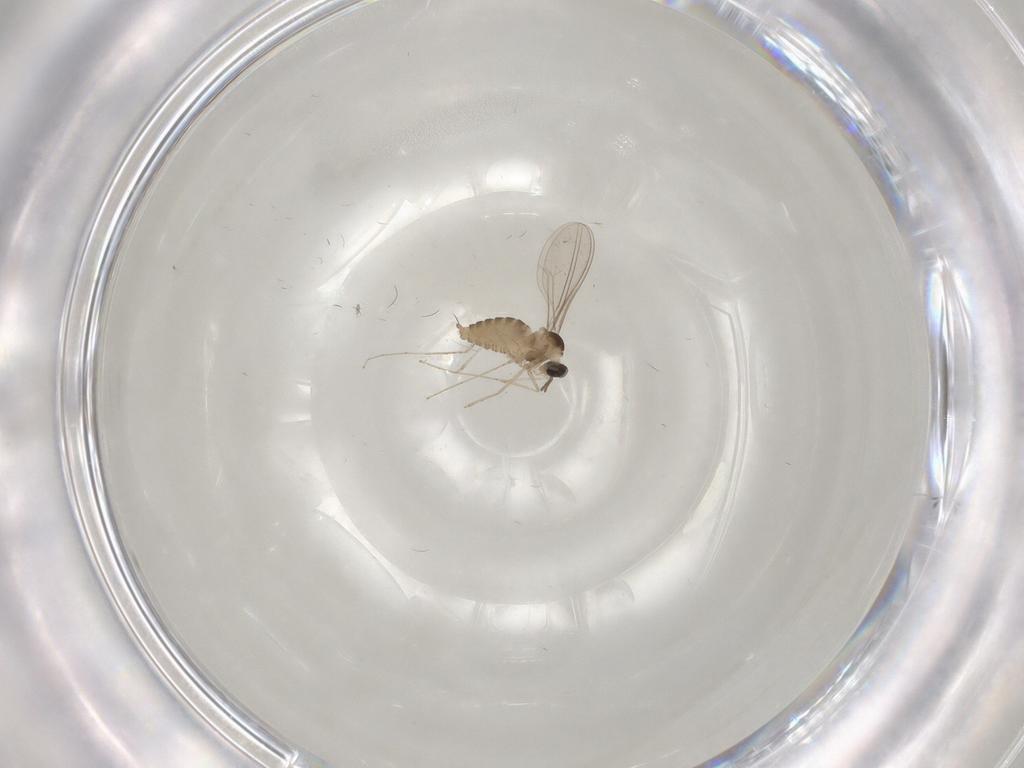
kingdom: Animalia
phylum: Arthropoda
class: Insecta
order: Diptera
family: Cecidomyiidae
